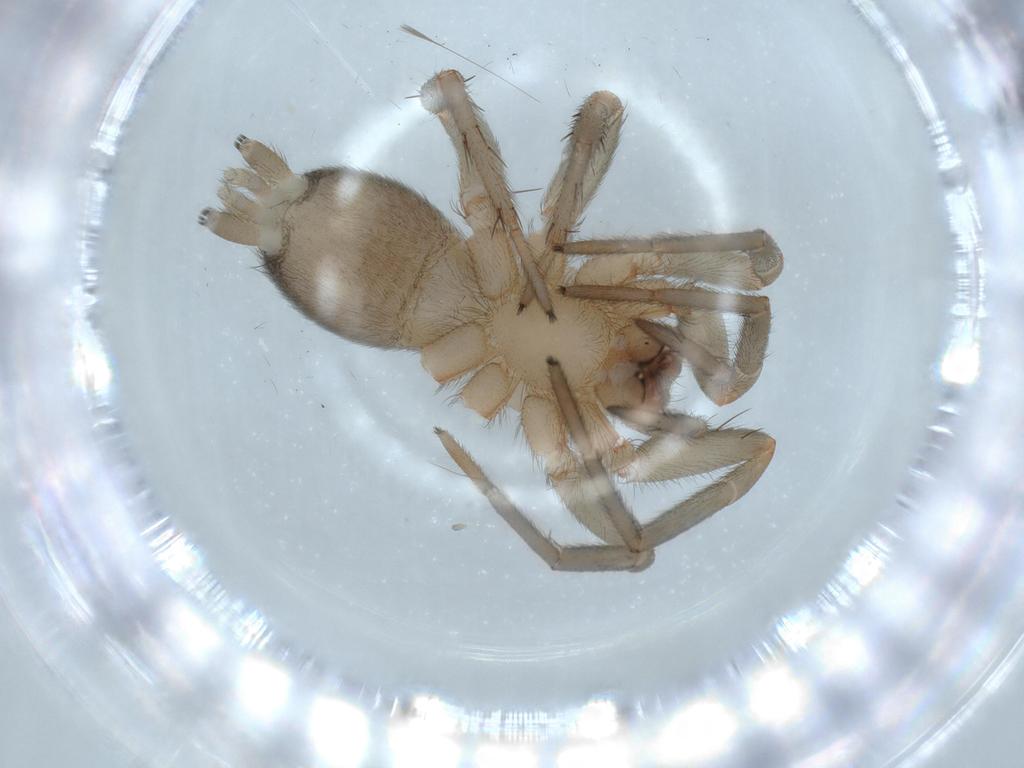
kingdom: Animalia
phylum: Arthropoda
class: Arachnida
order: Araneae
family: Gnaphosidae
